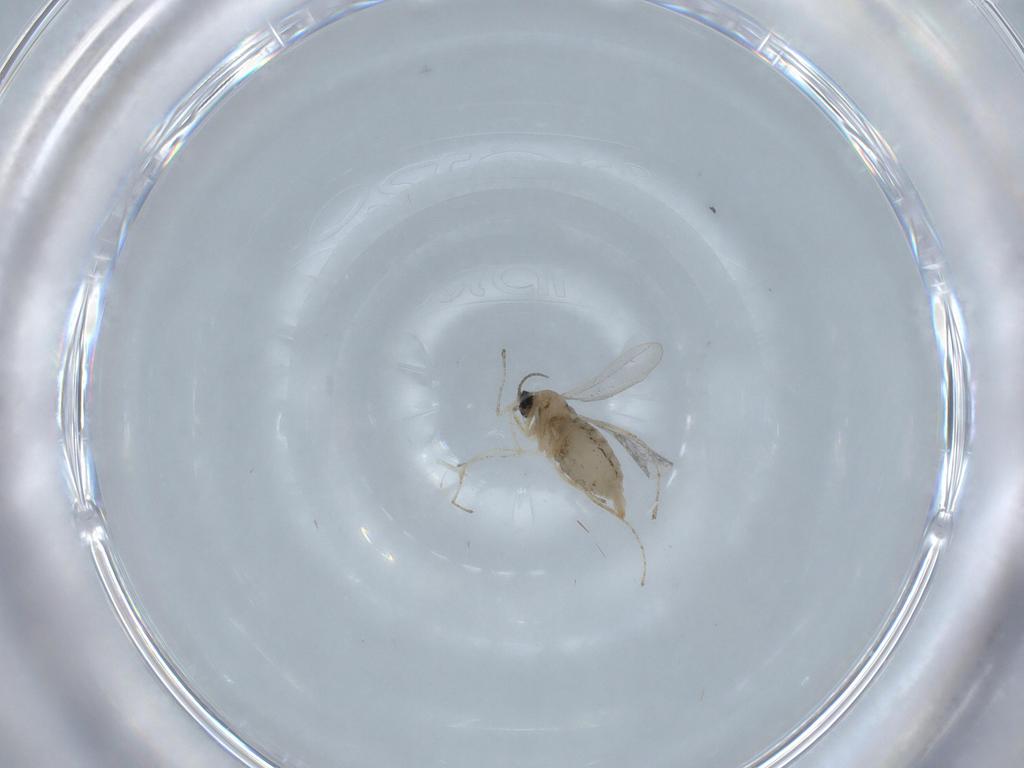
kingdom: Animalia
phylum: Arthropoda
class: Insecta
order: Diptera
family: Cecidomyiidae
